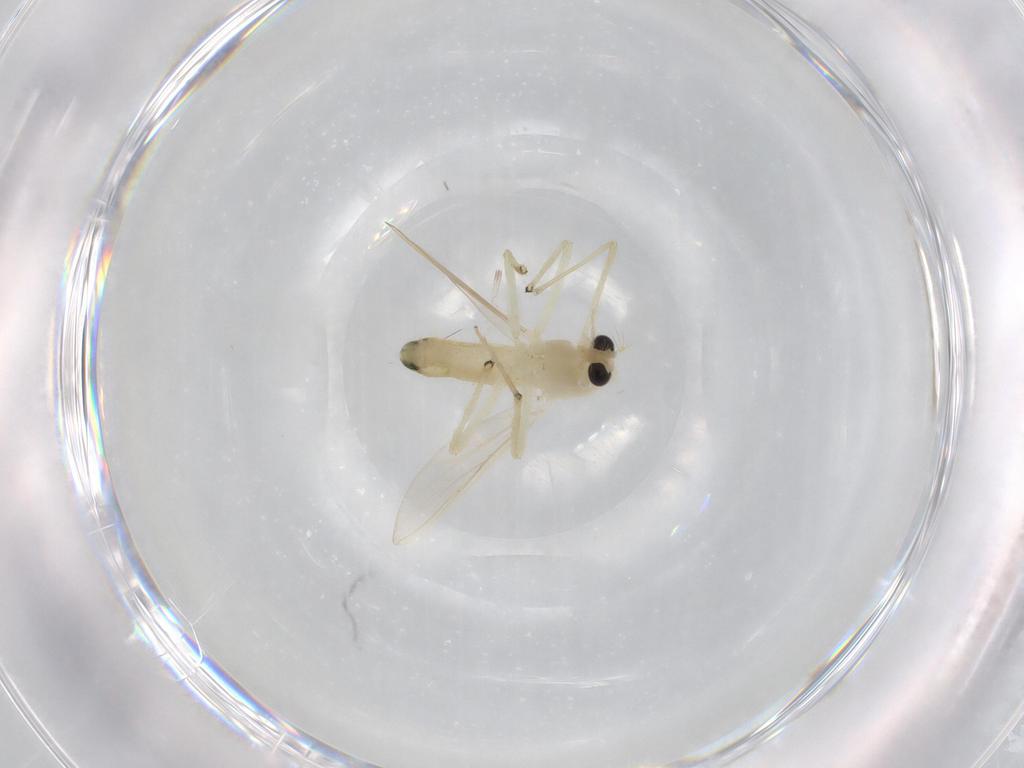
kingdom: Animalia
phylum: Arthropoda
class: Insecta
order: Diptera
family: Chironomidae
